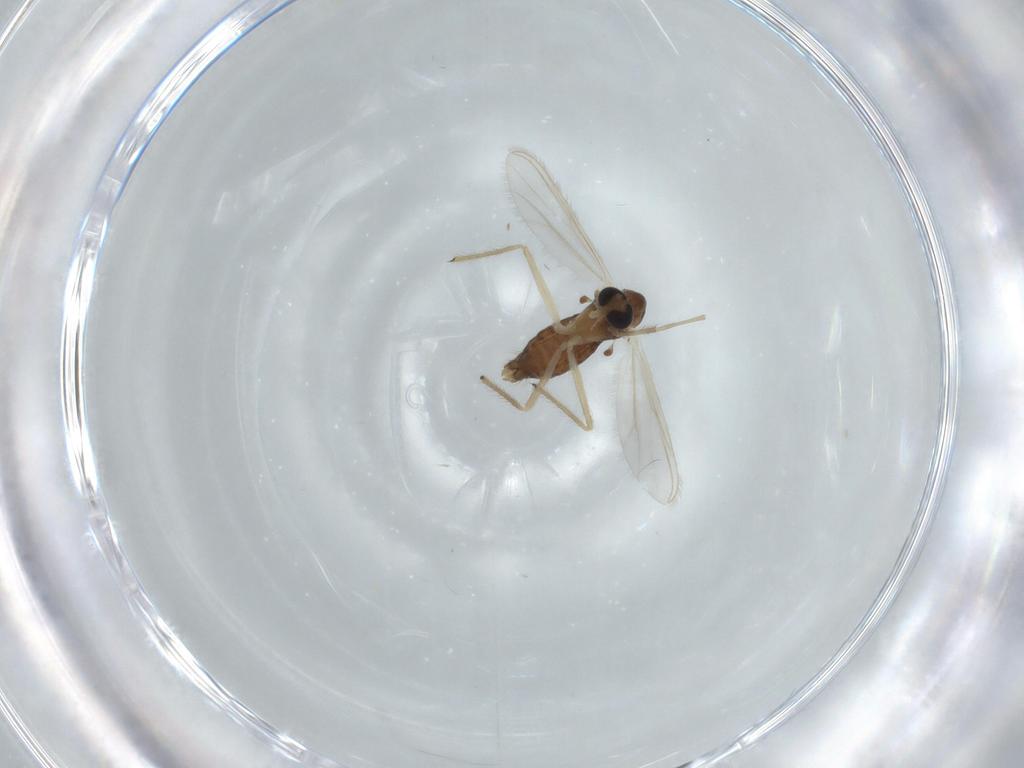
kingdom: Animalia
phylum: Arthropoda
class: Insecta
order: Diptera
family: Chironomidae
